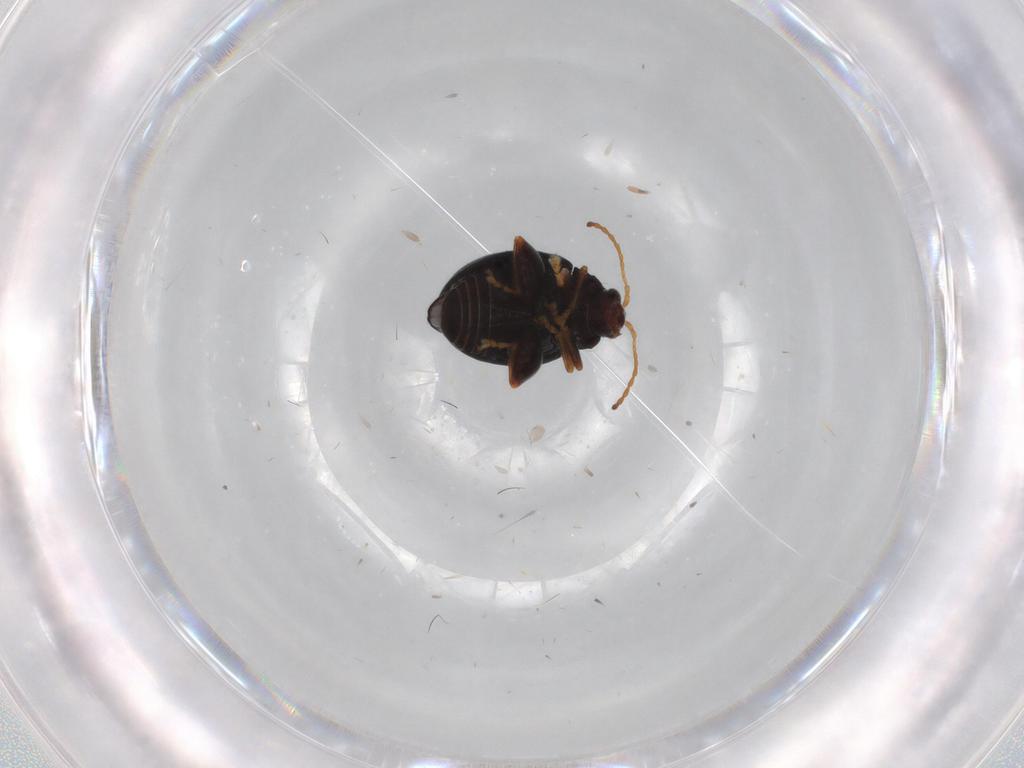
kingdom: Animalia
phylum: Arthropoda
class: Insecta
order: Coleoptera
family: Chrysomelidae
